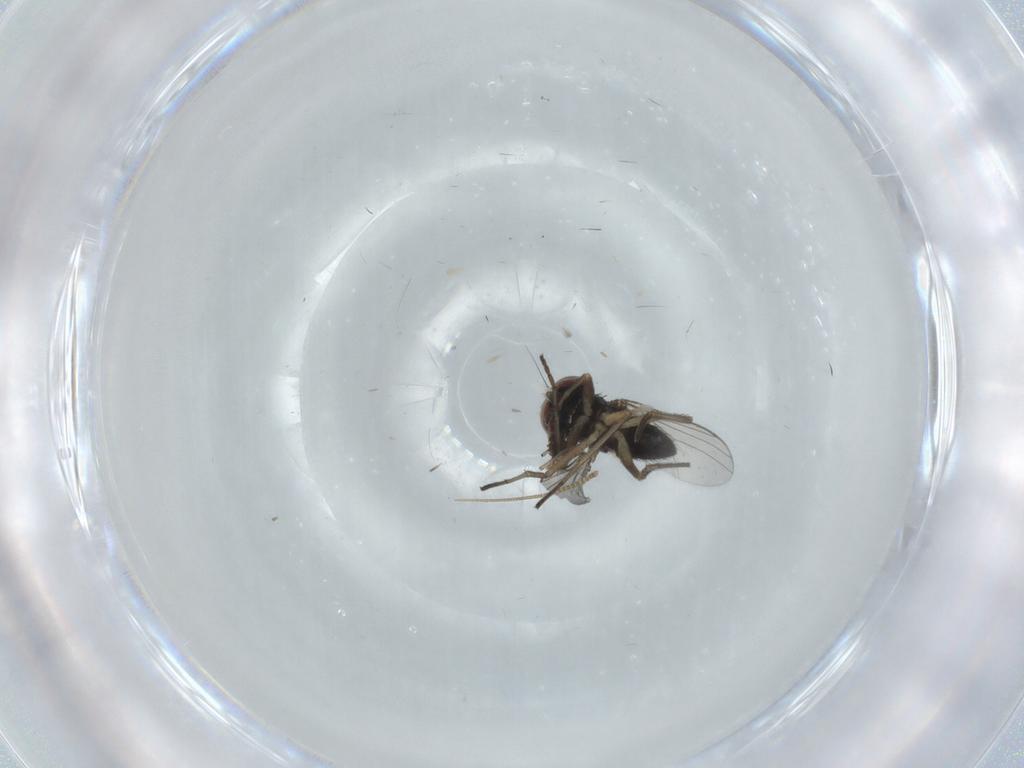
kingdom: Animalia
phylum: Arthropoda
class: Insecta
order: Diptera
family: Dolichopodidae
